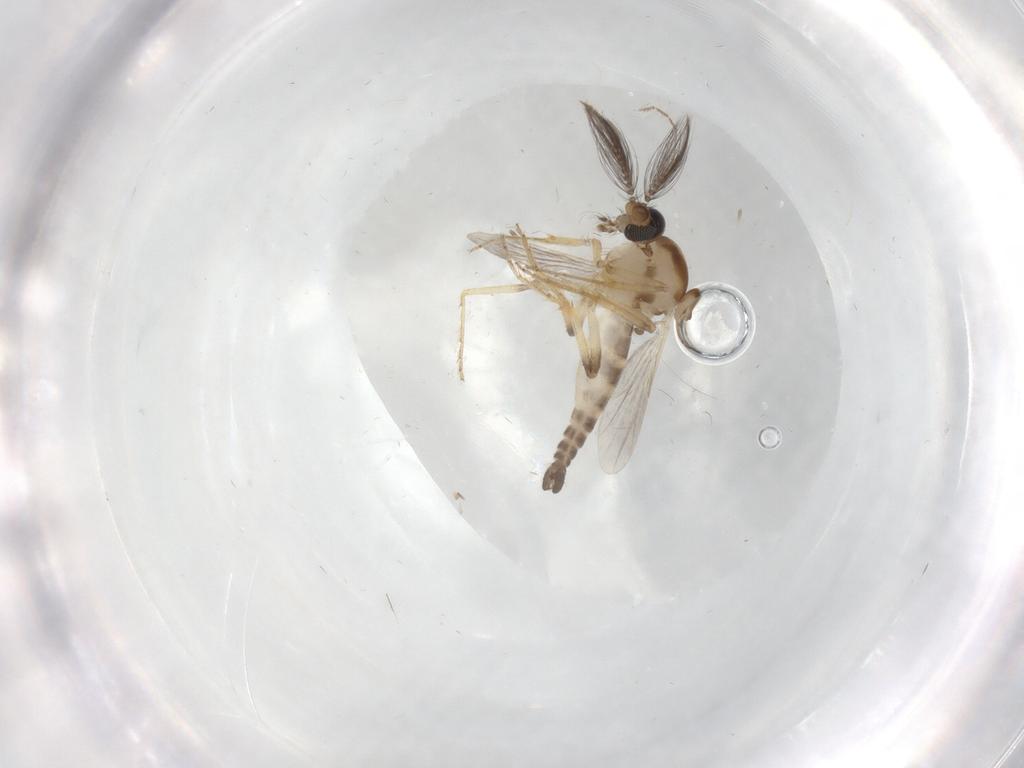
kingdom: Animalia
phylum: Arthropoda
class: Insecta
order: Diptera
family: Ceratopogonidae
